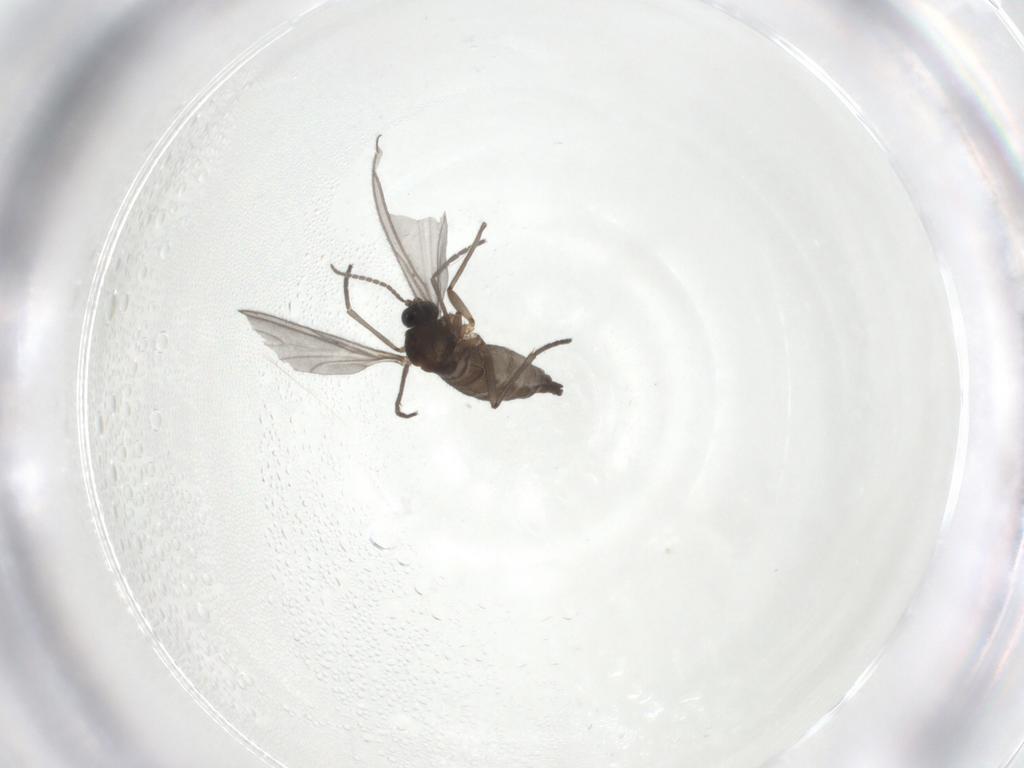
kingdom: Animalia
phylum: Arthropoda
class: Insecta
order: Diptera
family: Sciaridae
